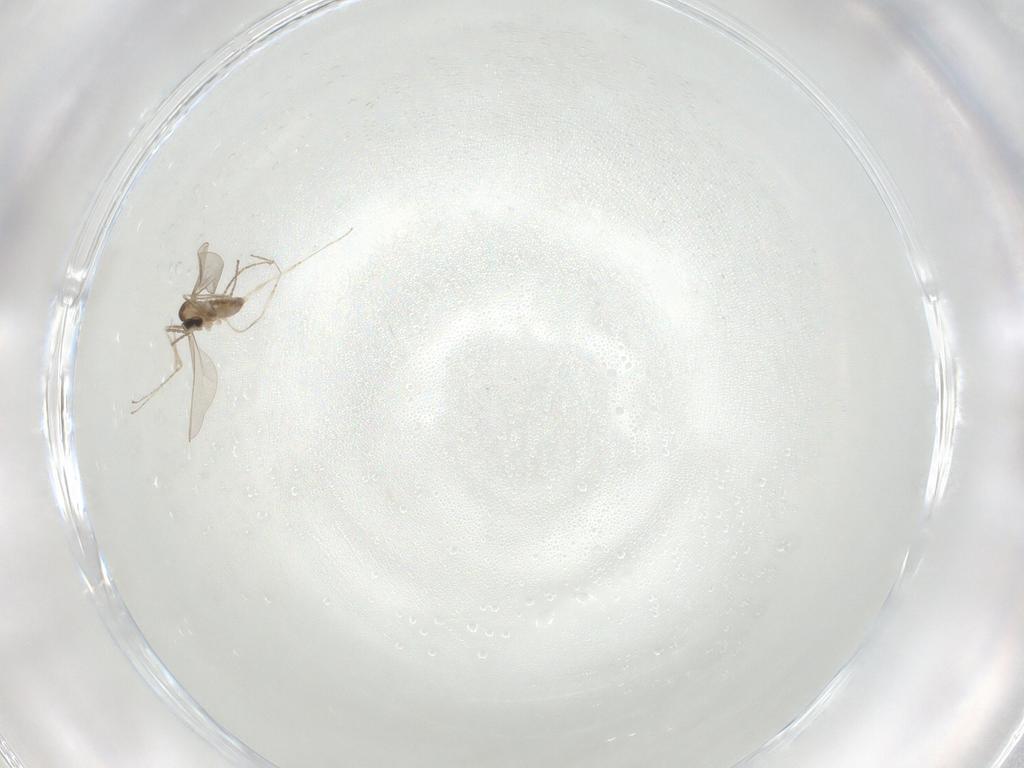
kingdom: Animalia
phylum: Arthropoda
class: Insecta
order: Diptera
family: Cecidomyiidae
